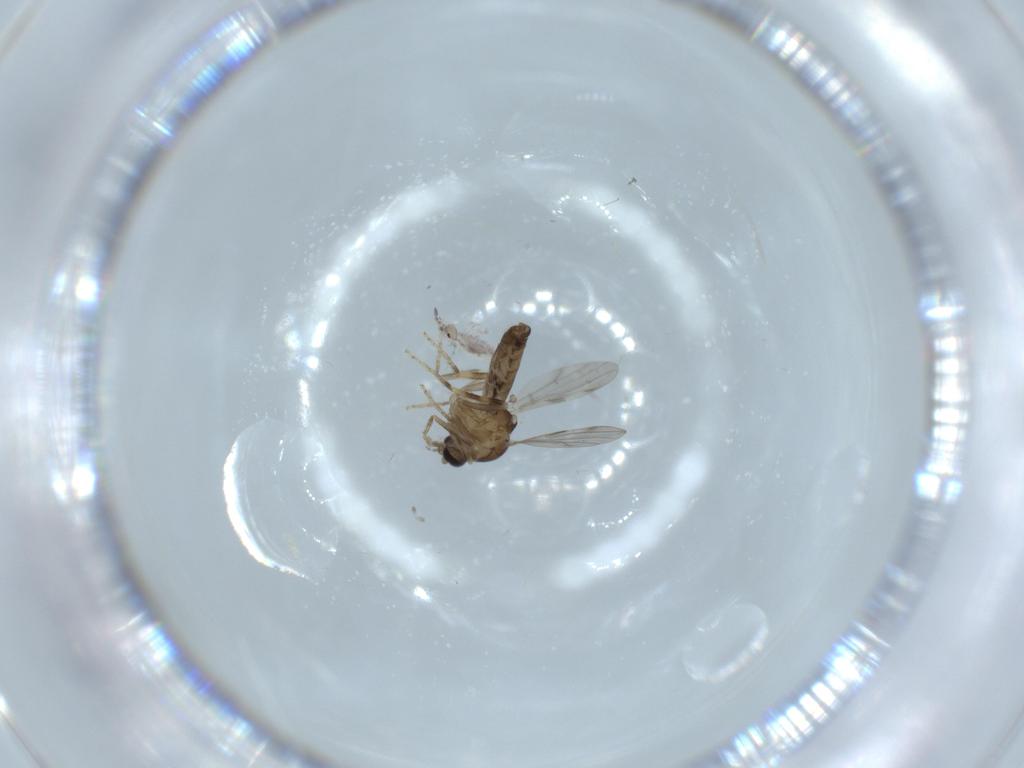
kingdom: Animalia
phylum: Arthropoda
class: Insecta
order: Diptera
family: Ceratopogonidae
